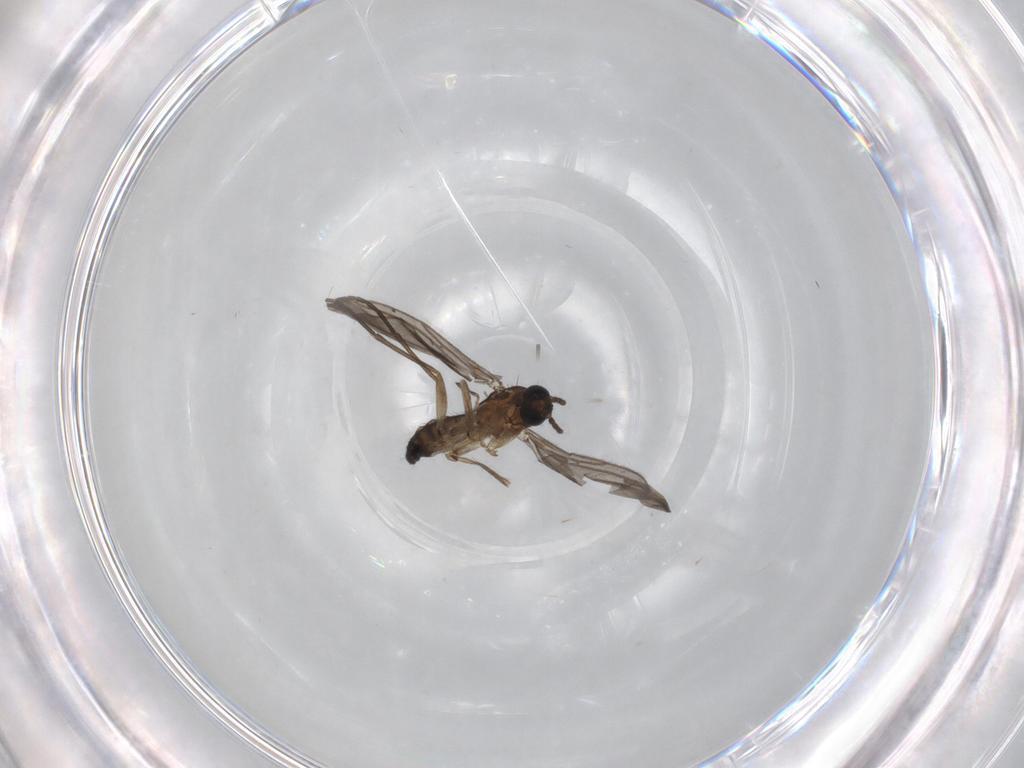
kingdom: Animalia
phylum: Arthropoda
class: Insecta
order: Diptera
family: Sciaridae
